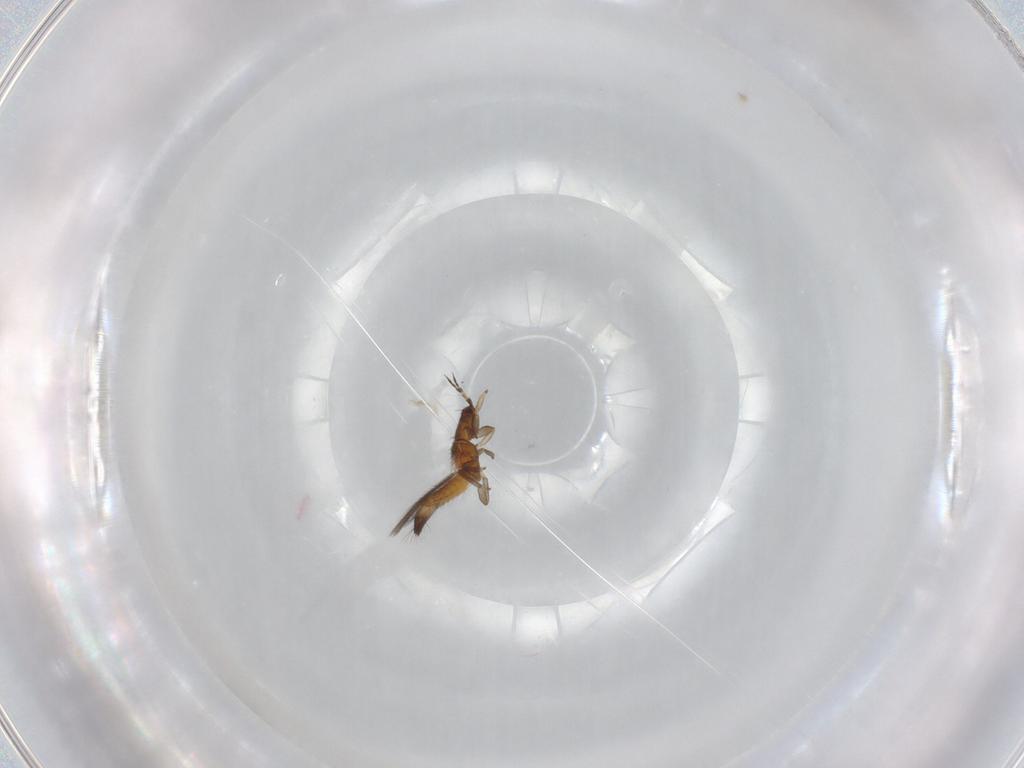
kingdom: Animalia
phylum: Arthropoda
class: Insecta
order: Thysanoptera
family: Thripidae
